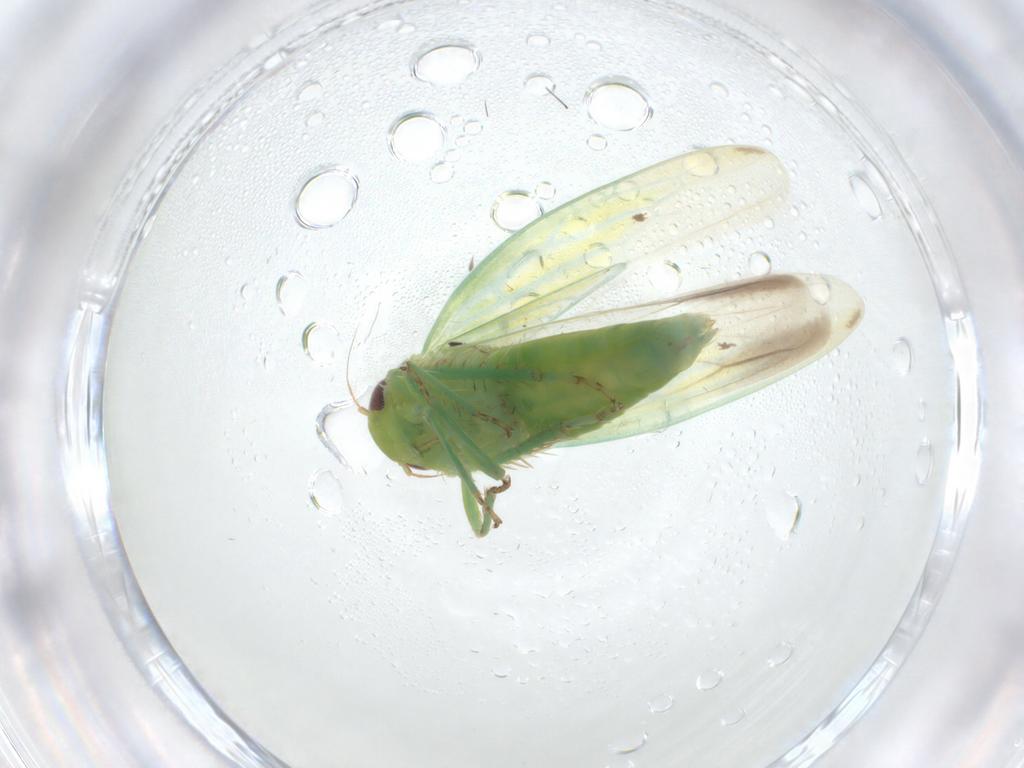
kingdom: Animalia
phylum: Arthropoda
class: Insecta
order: Hemiptera
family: Cicadellidae
